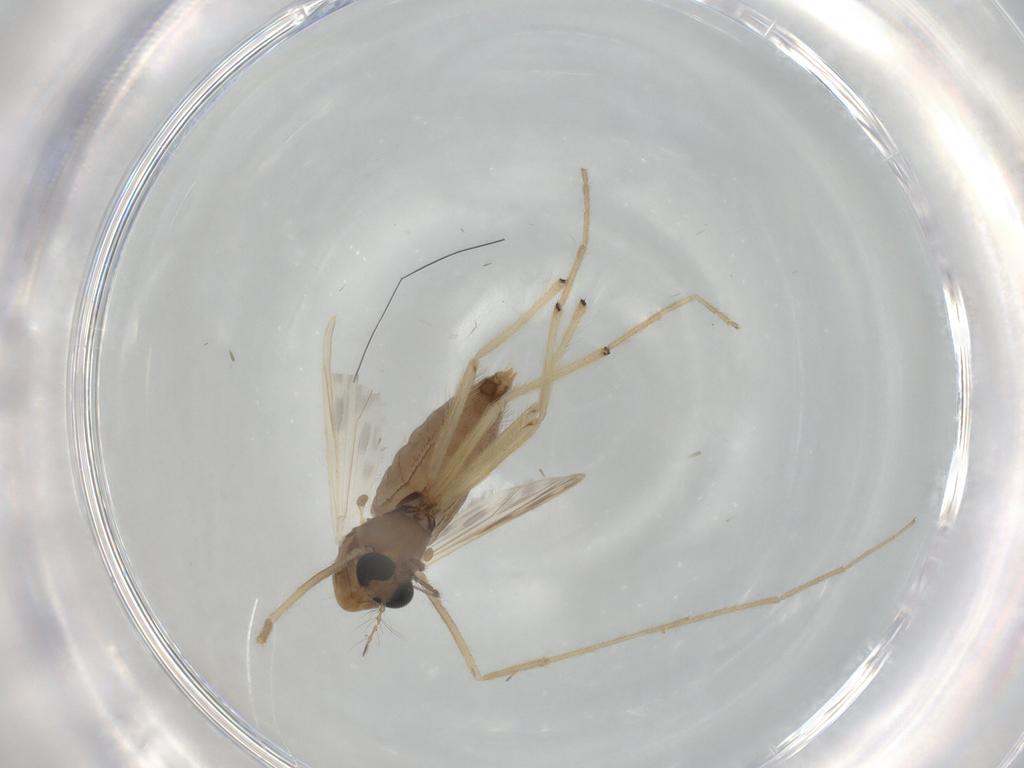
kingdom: Animalia
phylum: Arthropoda
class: Insecta
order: Diptera
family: Chironomidae
